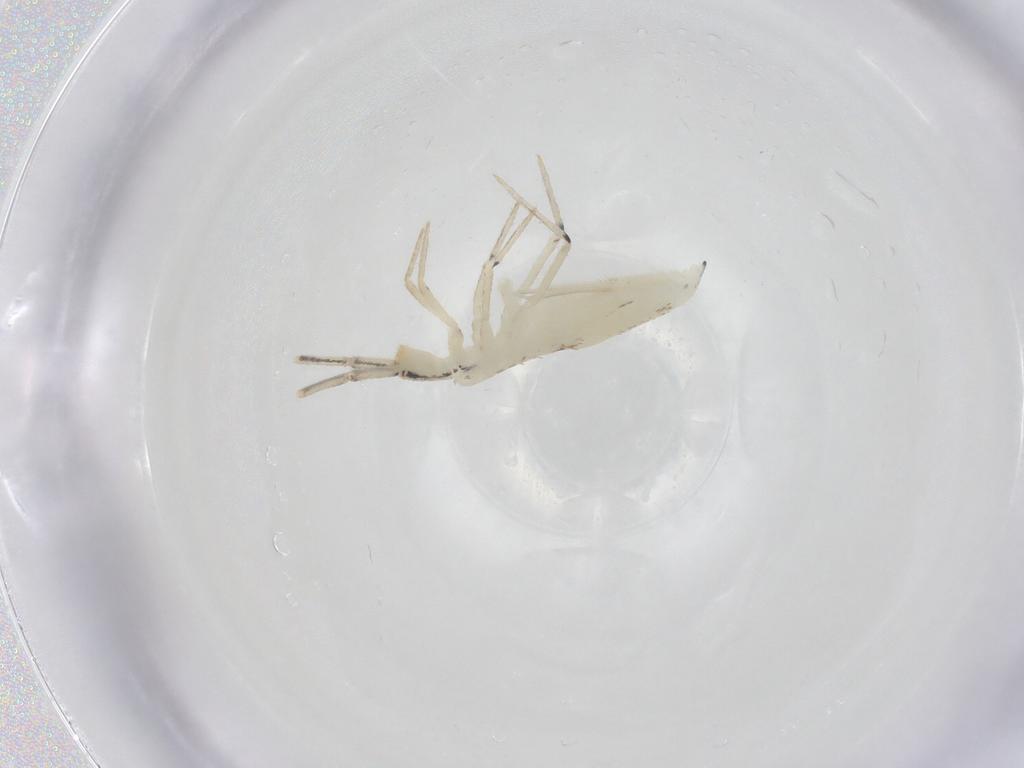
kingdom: Animalia
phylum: Arthropoda
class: Collembola
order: Entomobryomorpha
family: Entomobryidae
